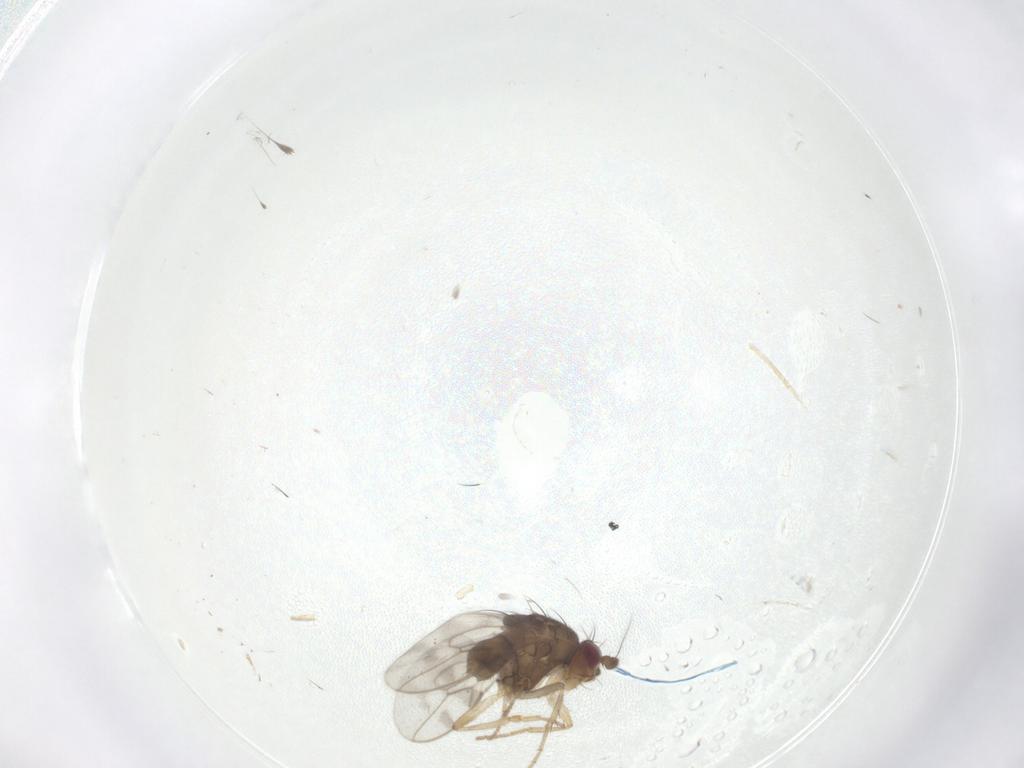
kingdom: Animalia
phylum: Arthropoda
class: Insecta
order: Diptera
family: Sphaeroceridae
